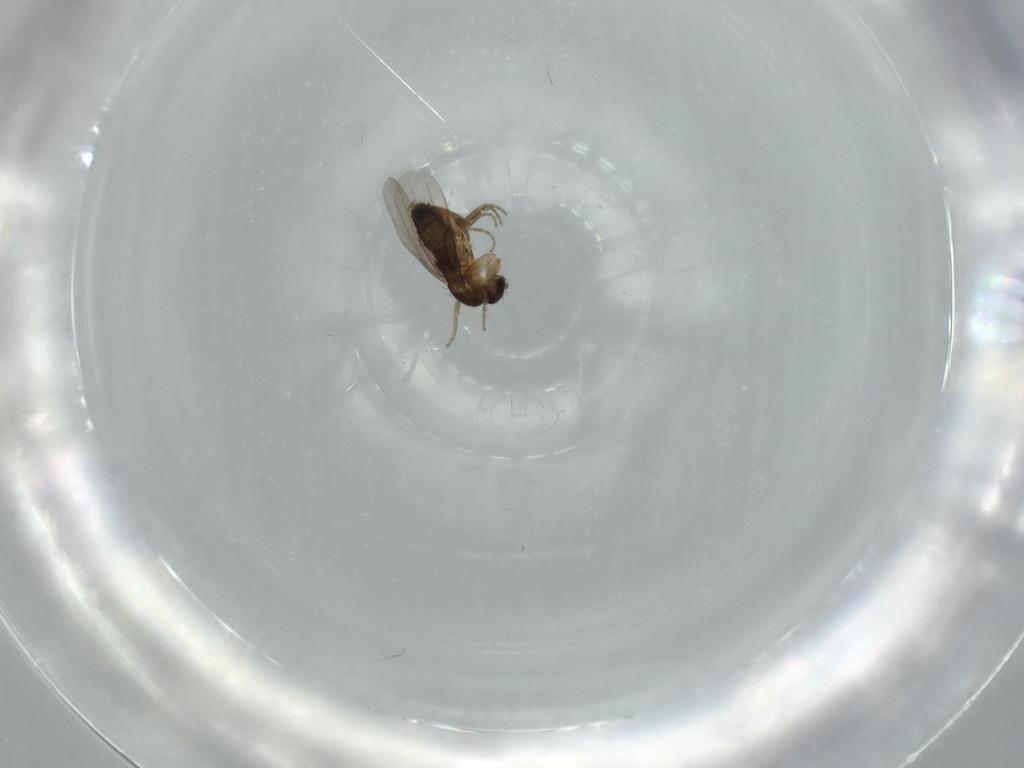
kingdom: Animalia
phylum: Arthropoda
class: Insecta
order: Diptera
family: Phoridae
